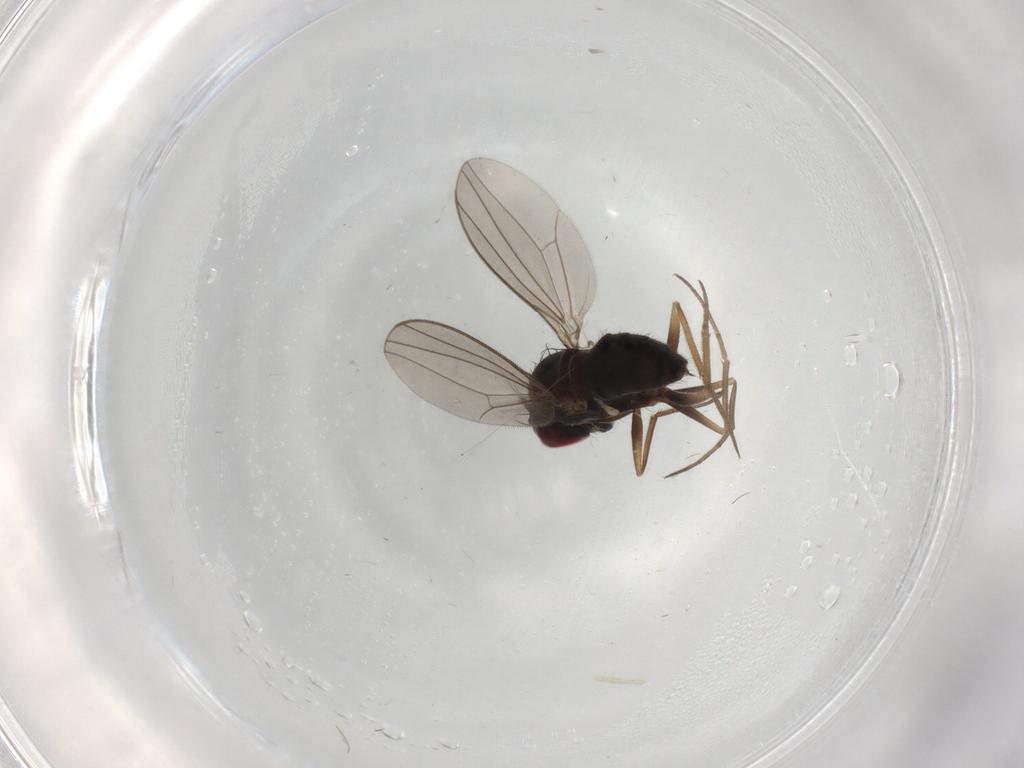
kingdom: Animalia
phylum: Arthropoda
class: Insecta
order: Diptera
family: Dolichopodidae
